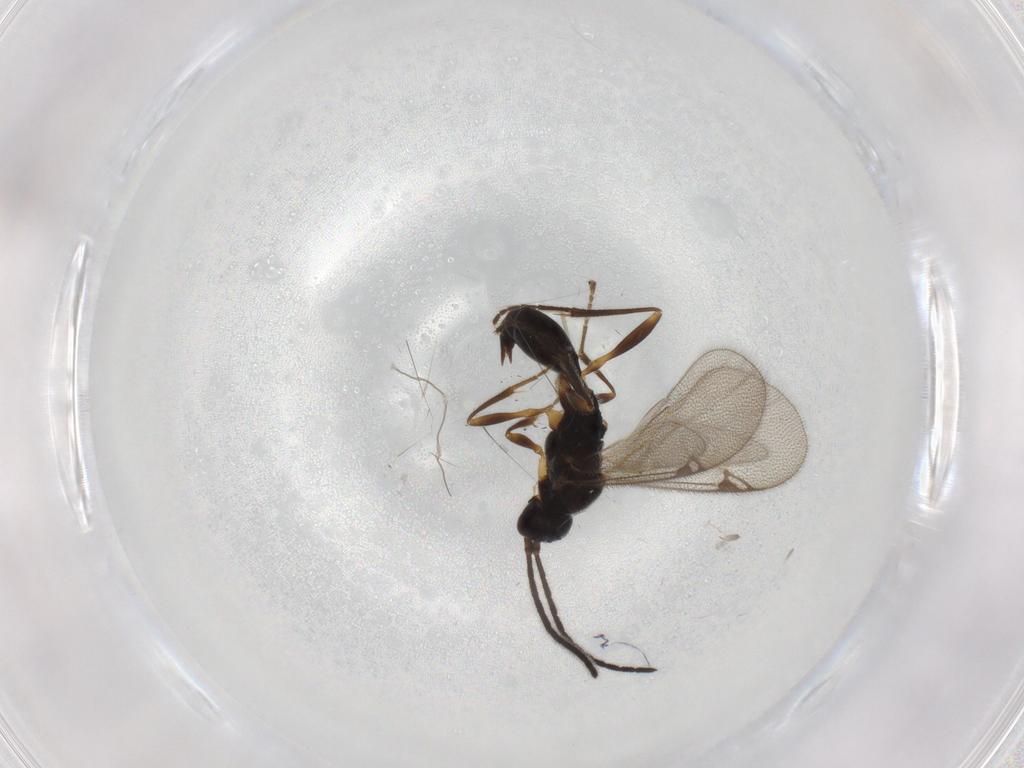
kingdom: Animalia
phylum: Arthropoda
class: Insecta
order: Hymenoptera
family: Proctotrupidae
